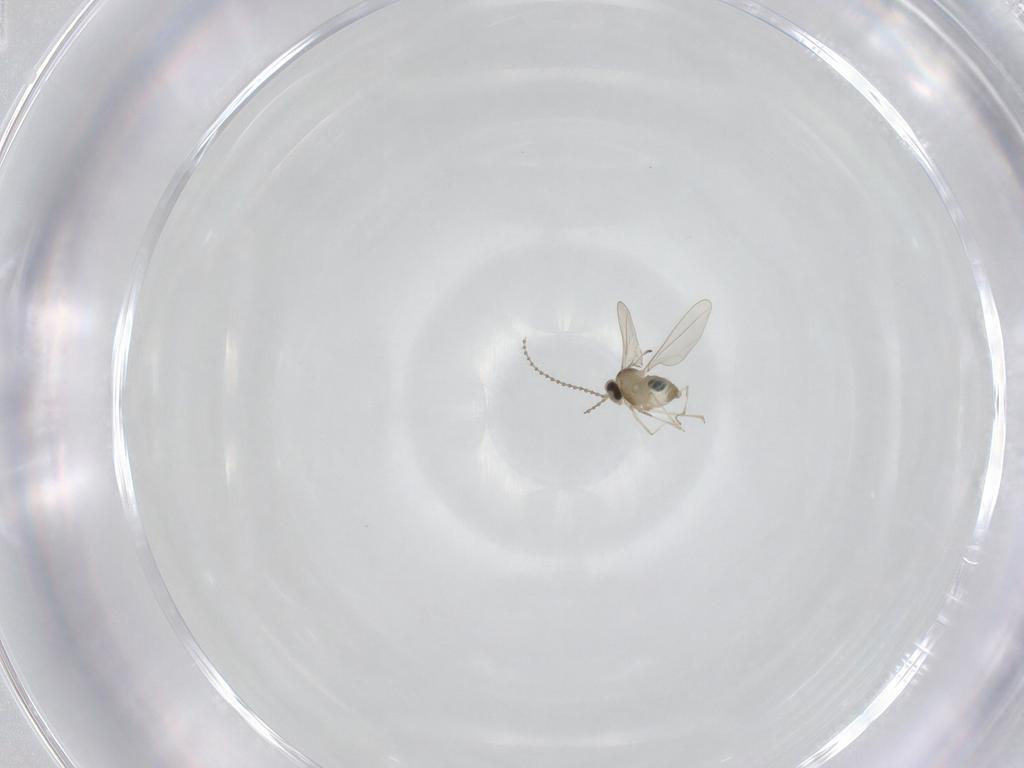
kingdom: Animalia
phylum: Arthropoda
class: Insecta
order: Diptera
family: Cecidomyiidae
